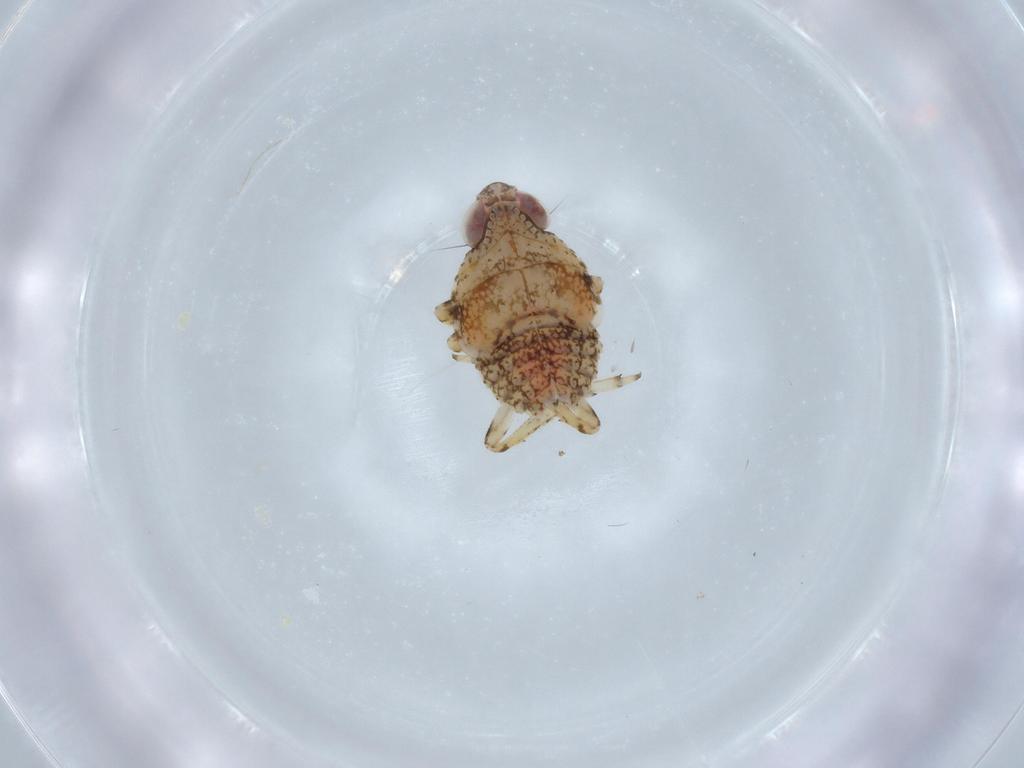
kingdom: Animalia
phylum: Arthropoda
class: Insecta
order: Hemiptera
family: Issidae
